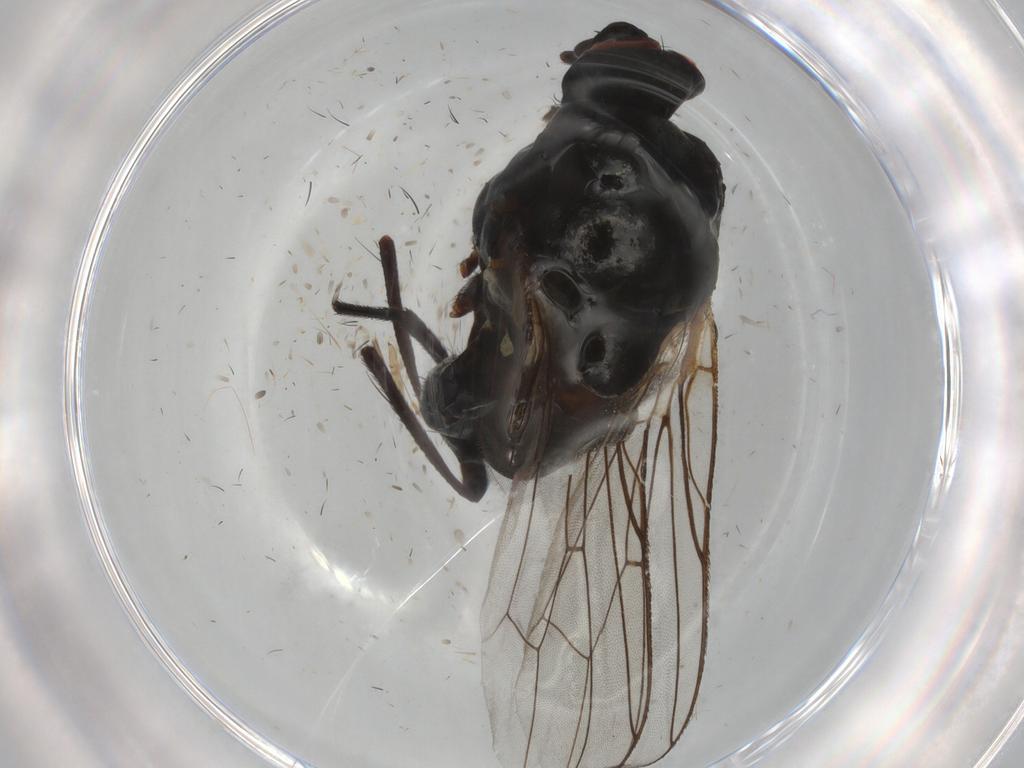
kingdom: Animalia
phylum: Arthropoda
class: Insecta
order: Diptera
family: Anthomyiidae
